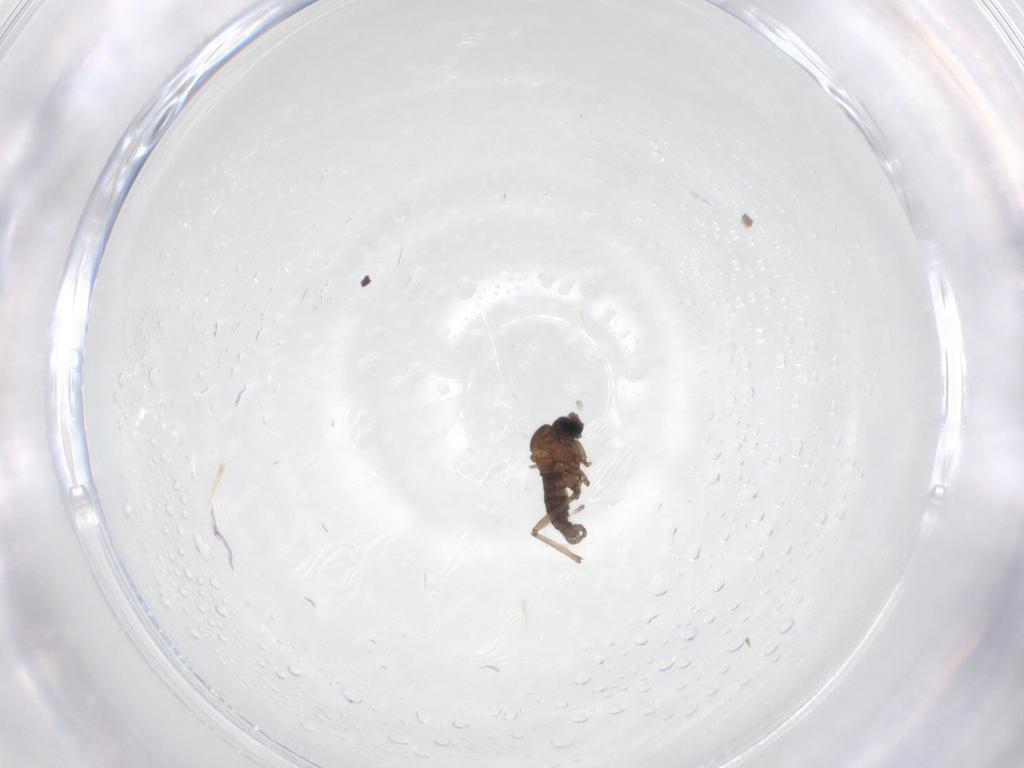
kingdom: Animalia
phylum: Arthropoda
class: Insecta
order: Diptera
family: Sciaridae
